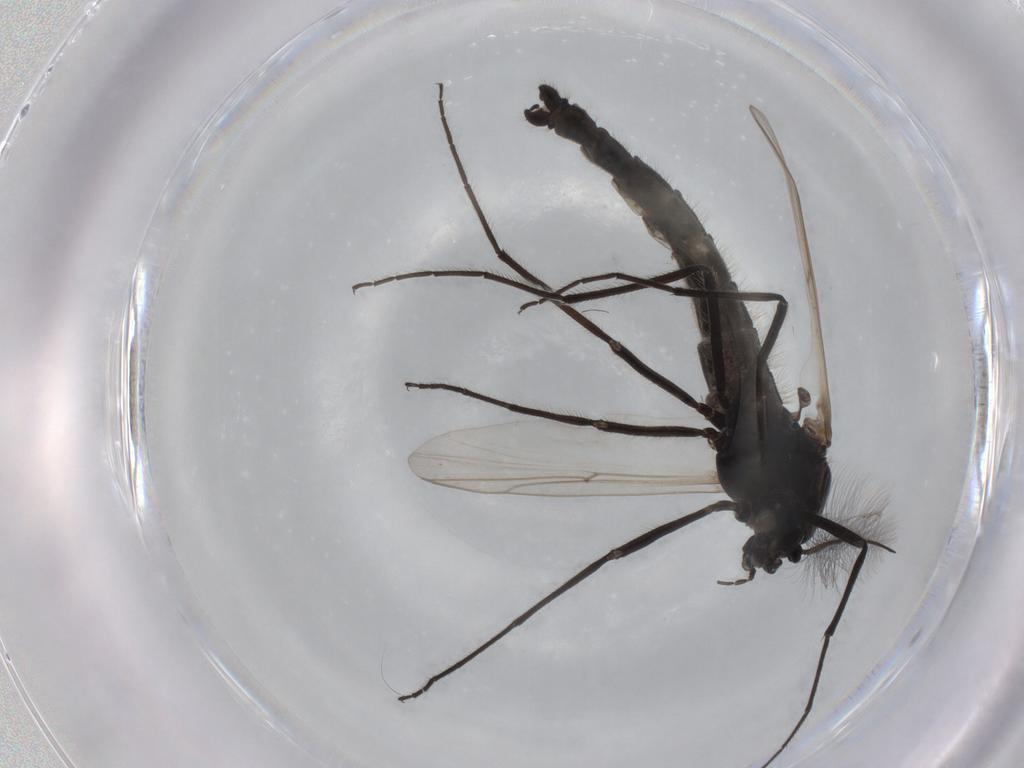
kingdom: Animalia
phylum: Arthropoda
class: Insecta
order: Diptera
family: Chironomidae
